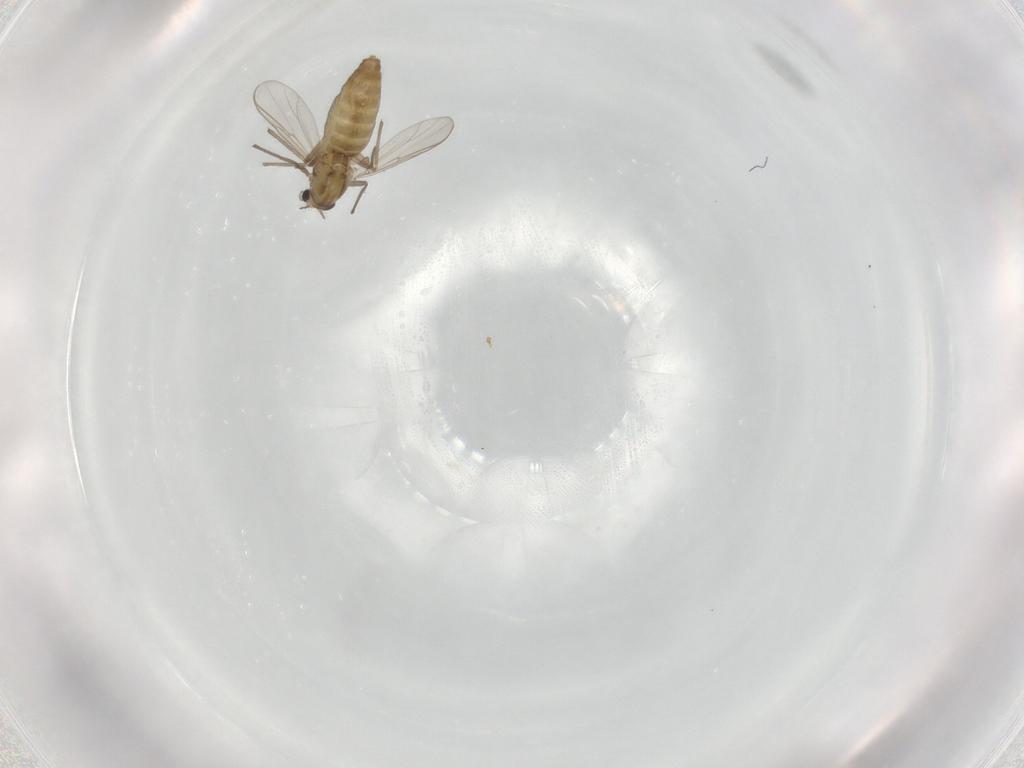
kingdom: Animalia
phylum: Arthropoda
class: Insecta
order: Diptera
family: Chironomidae
